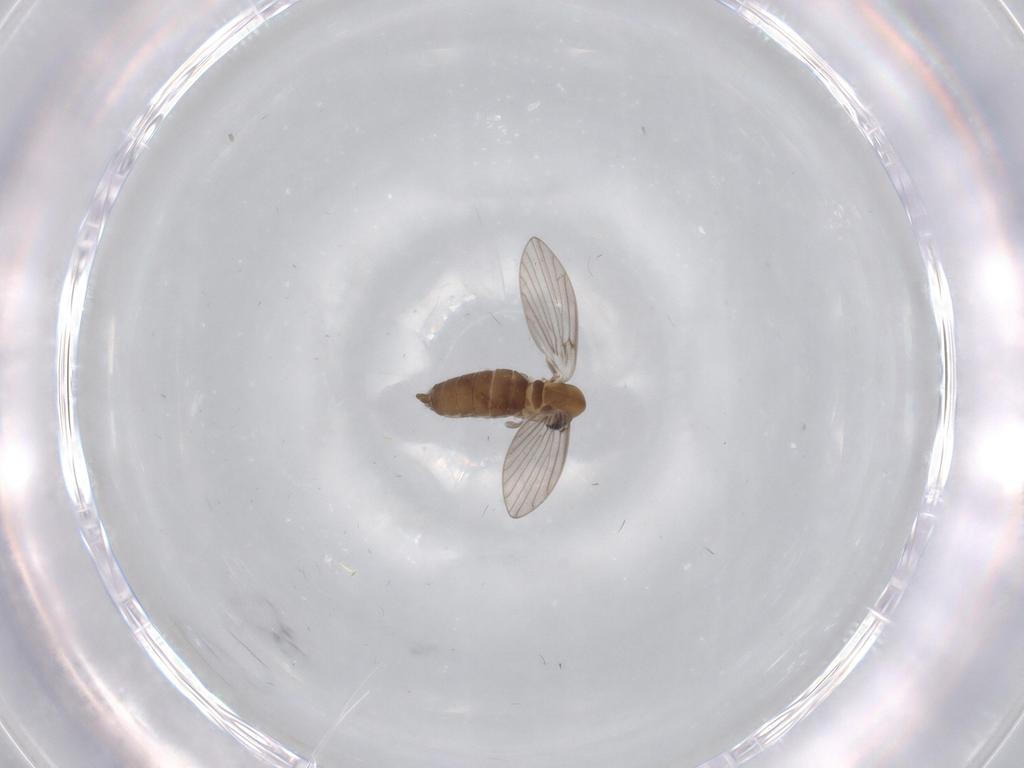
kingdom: Animalia
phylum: Arthropoda
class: Insecta
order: Diptera
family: Psychodidae
